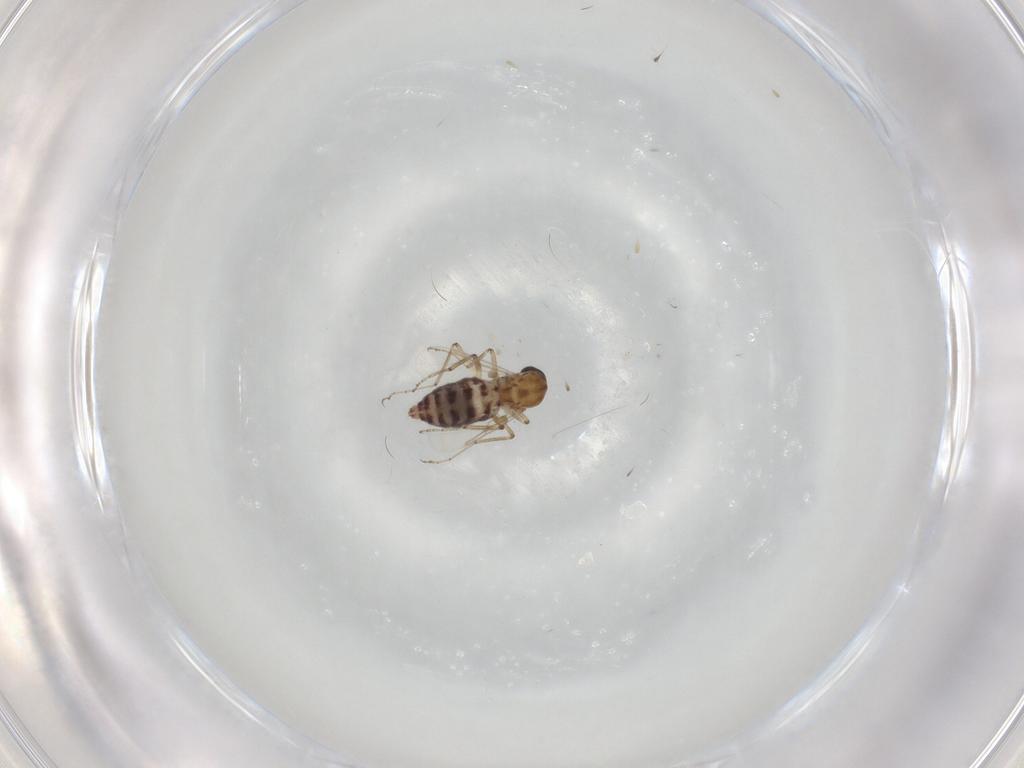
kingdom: Animalia
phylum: Arthropoda
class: Insecta
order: Diptera
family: Ceratopogonidae
